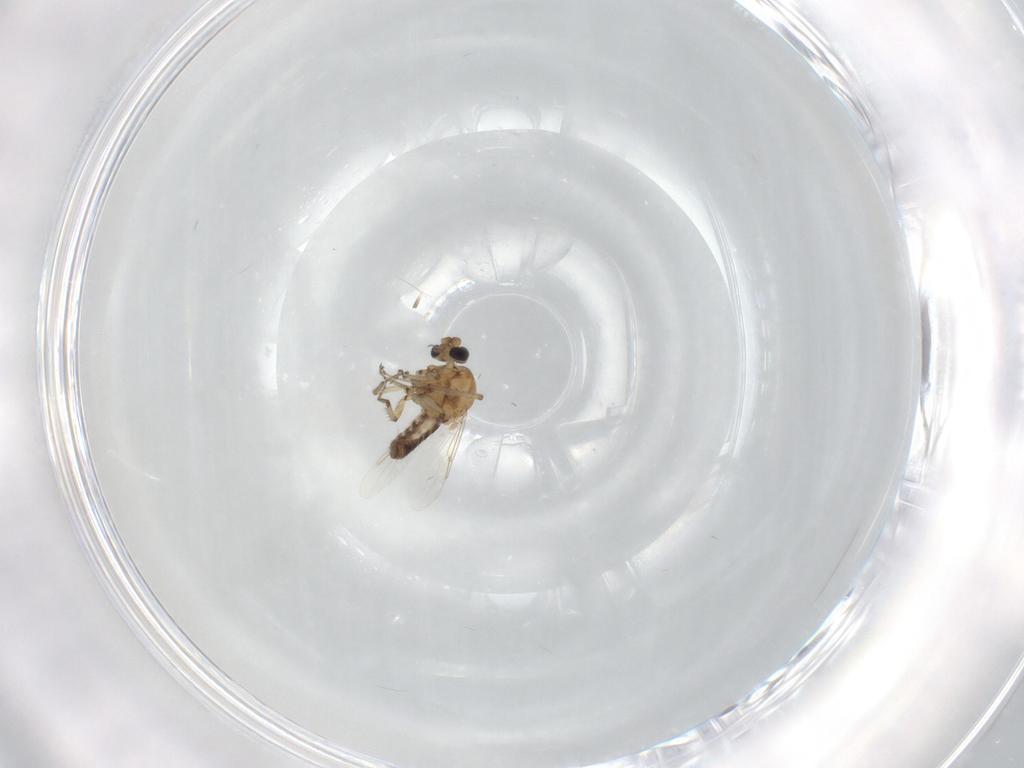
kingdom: Animalia
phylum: Arthropoda
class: Insecta
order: Diptera
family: Ceratopogonidae
